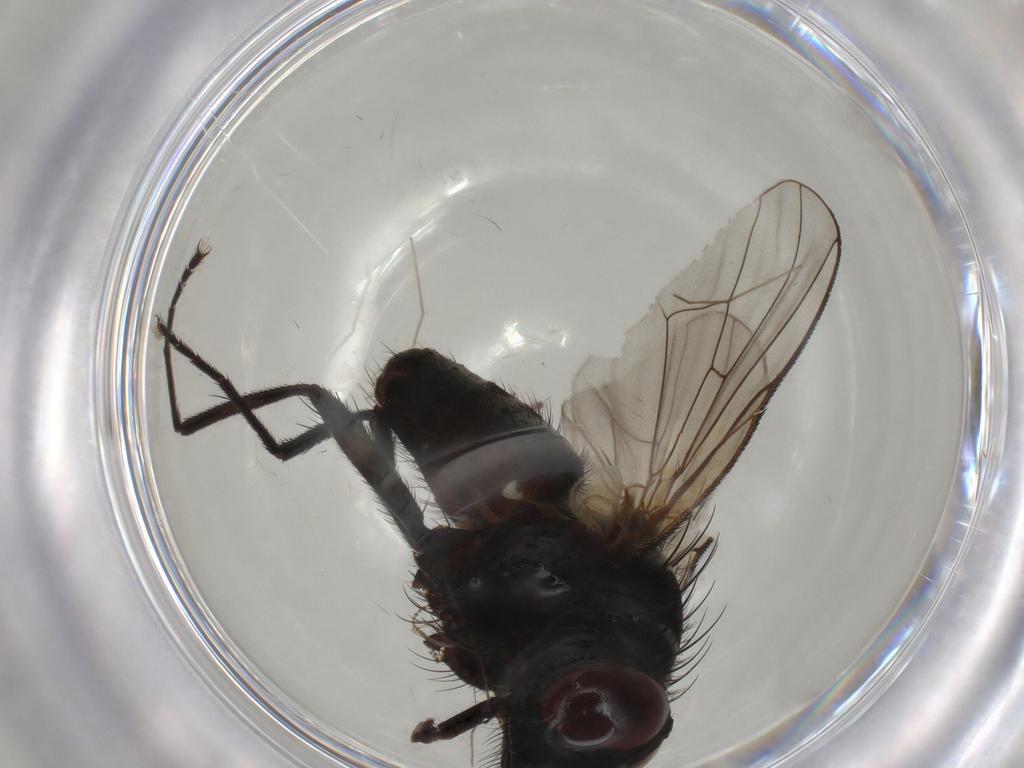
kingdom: Animalia
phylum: Arthropoda
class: Insecta
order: Diptera
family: Muscidae
